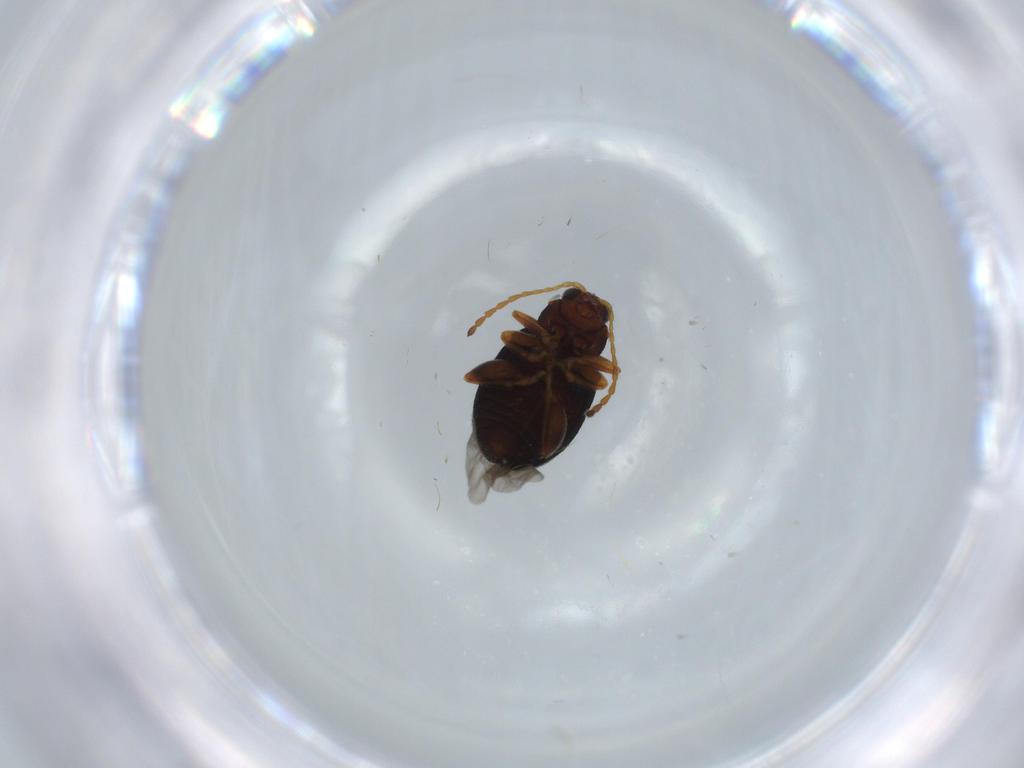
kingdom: Animalia
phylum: Arthropoda
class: Insecta
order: Coleoptera
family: Chrysomelidae
